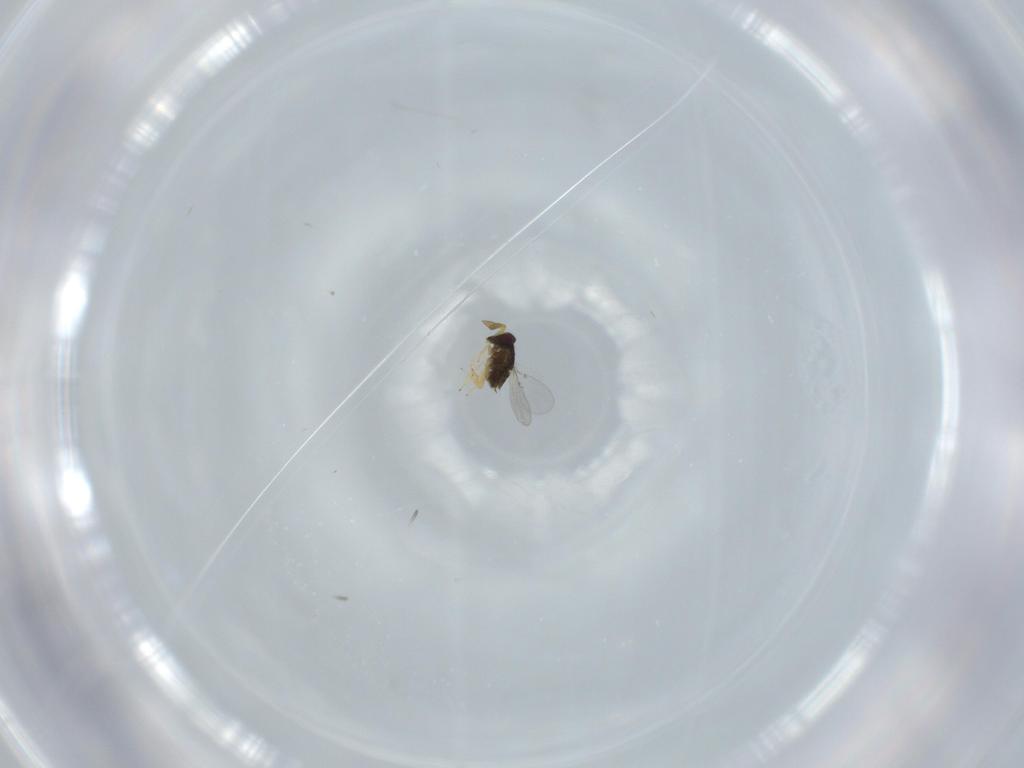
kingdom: Animalia
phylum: Arthropoda
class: Insecta
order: Hymenoptera
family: Encyrtidae
